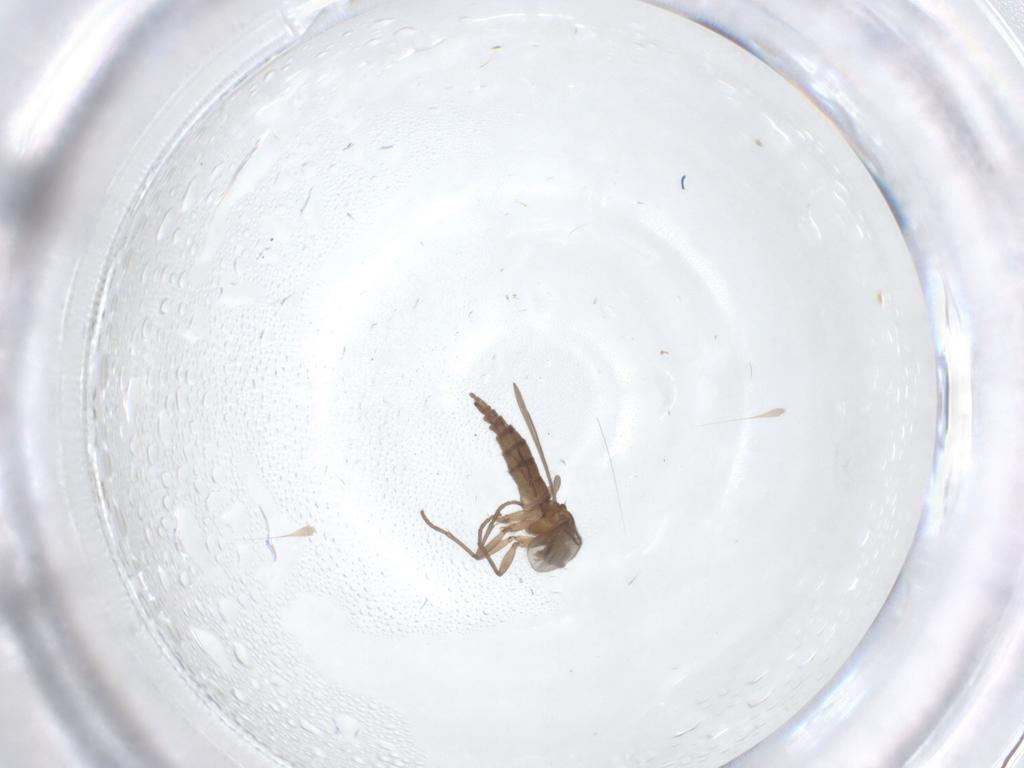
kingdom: Animalia
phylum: Arthropoda
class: Insecta
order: Diptera
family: Sciaridae
